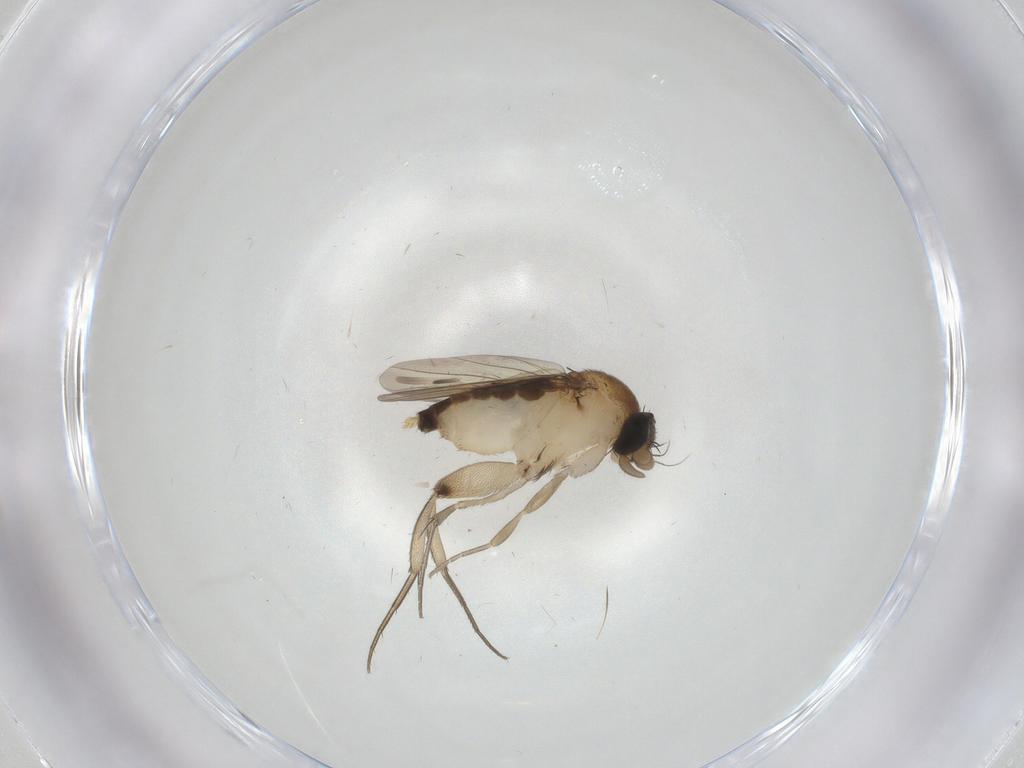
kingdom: Animalia
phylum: Arthropoda
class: Insecta
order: Diptera
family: Phoridae
